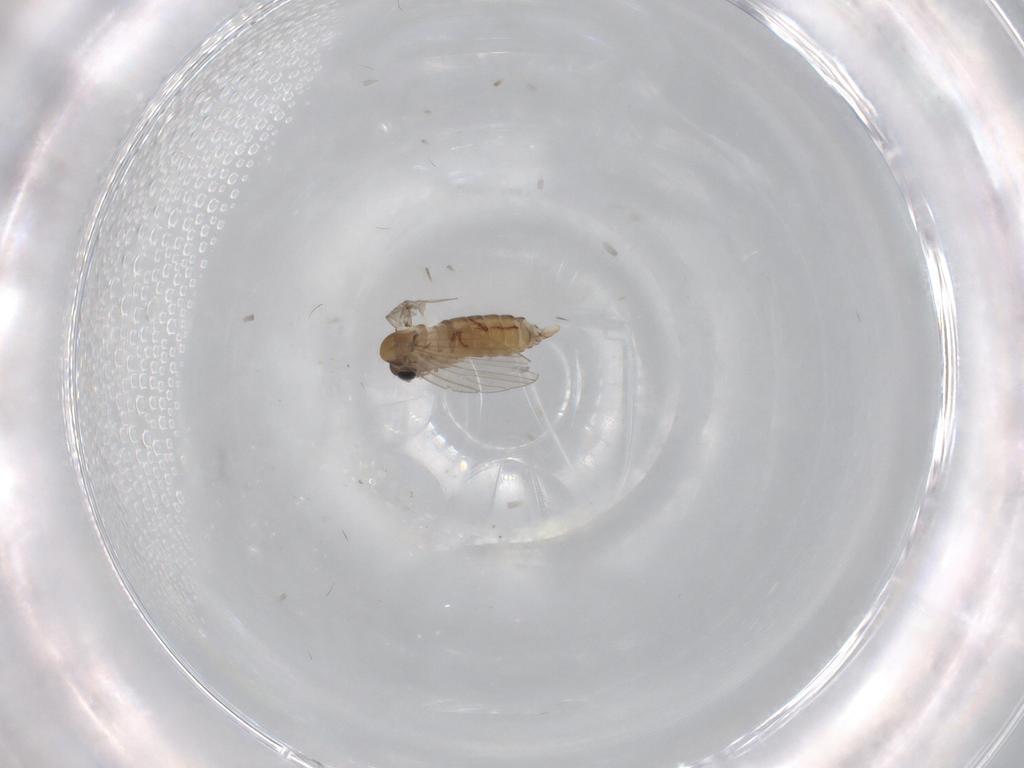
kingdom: Animalia
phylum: Arthropoda
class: Insecta
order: Diptera
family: Psychodidae
